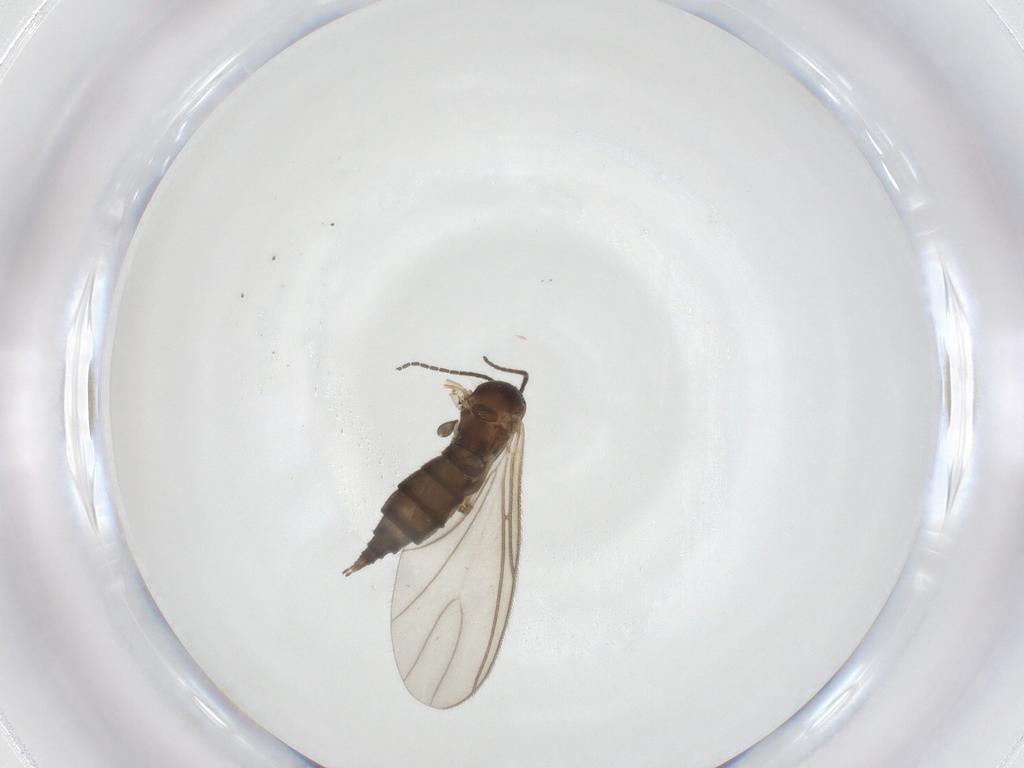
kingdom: Animalia
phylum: Arthropoda
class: Insecta
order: Diptera
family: Sciaridae
